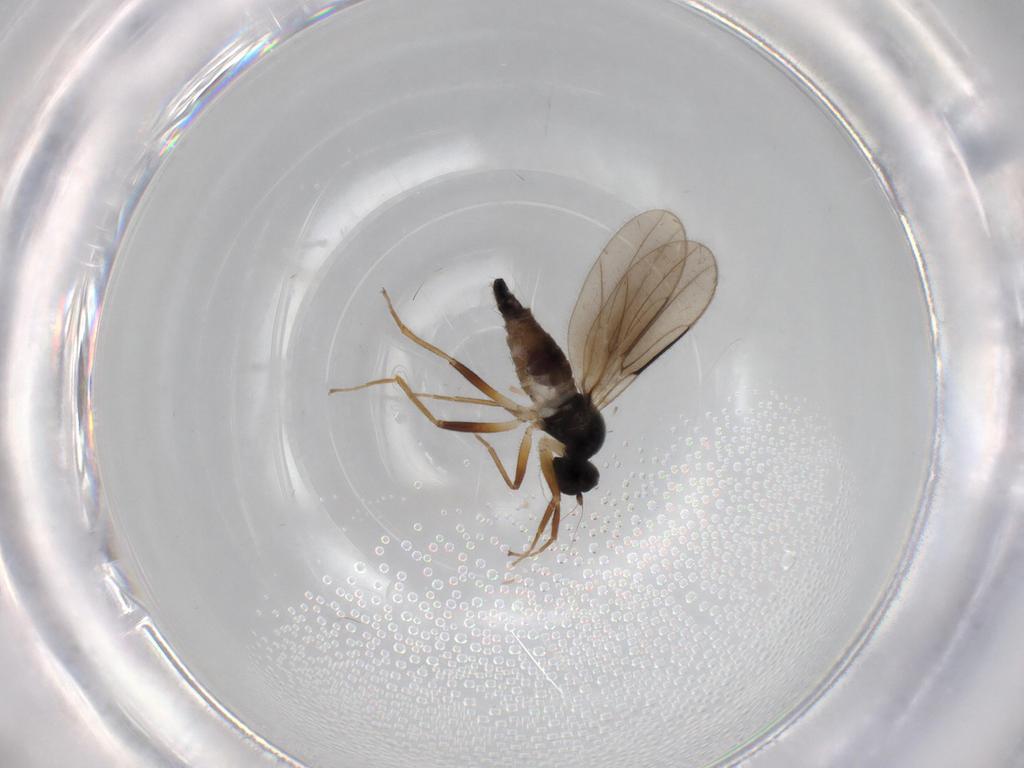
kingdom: Animalia
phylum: Arthropoda
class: Insecta
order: Diptera
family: Hybotidae
